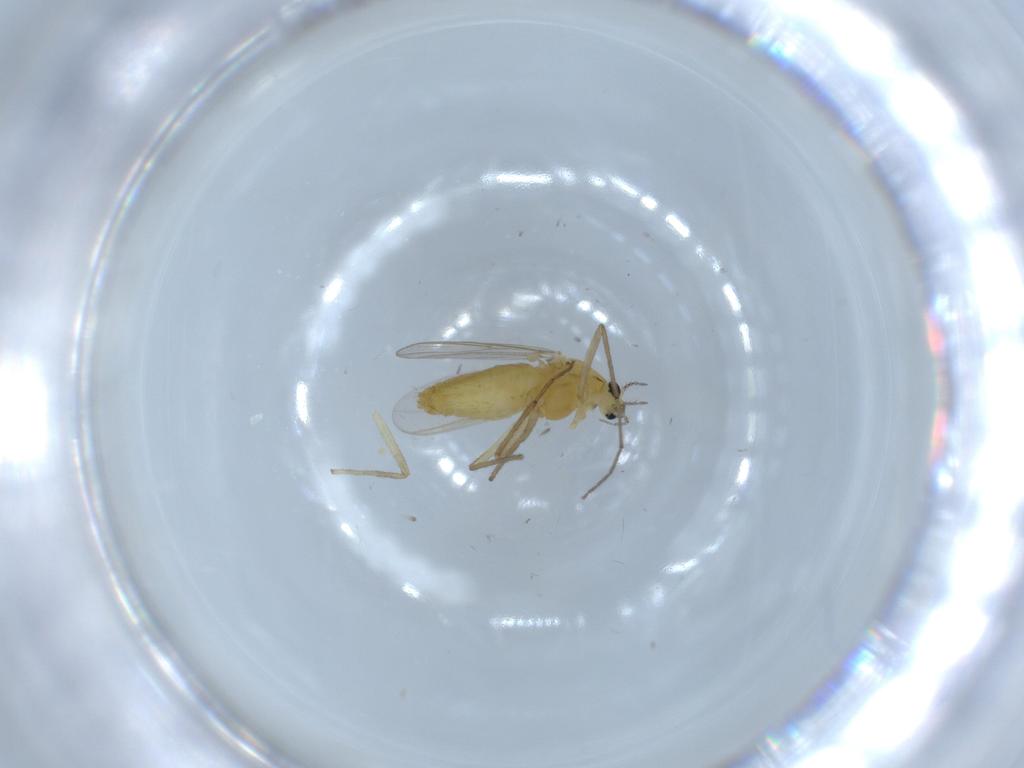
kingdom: Animalia
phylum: Arthropoda
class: Insecta
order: Diptera
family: Chironomidae
